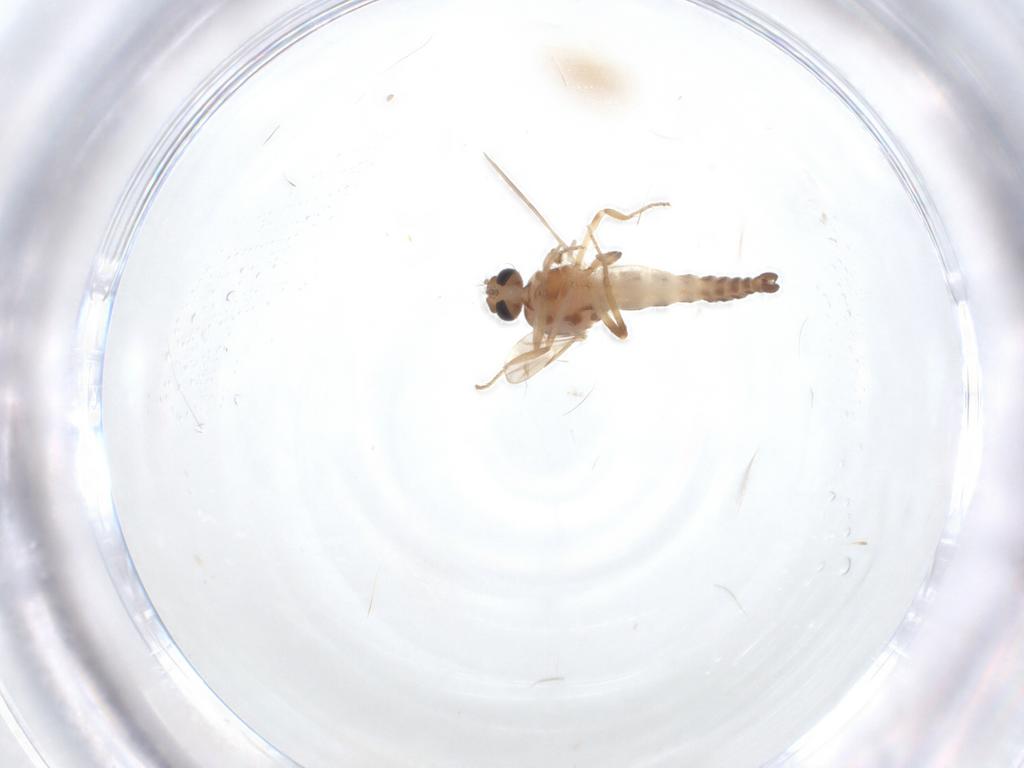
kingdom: Animalia
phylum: Arthropoda
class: Insecta
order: Diptera
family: Ceratopogonidae
